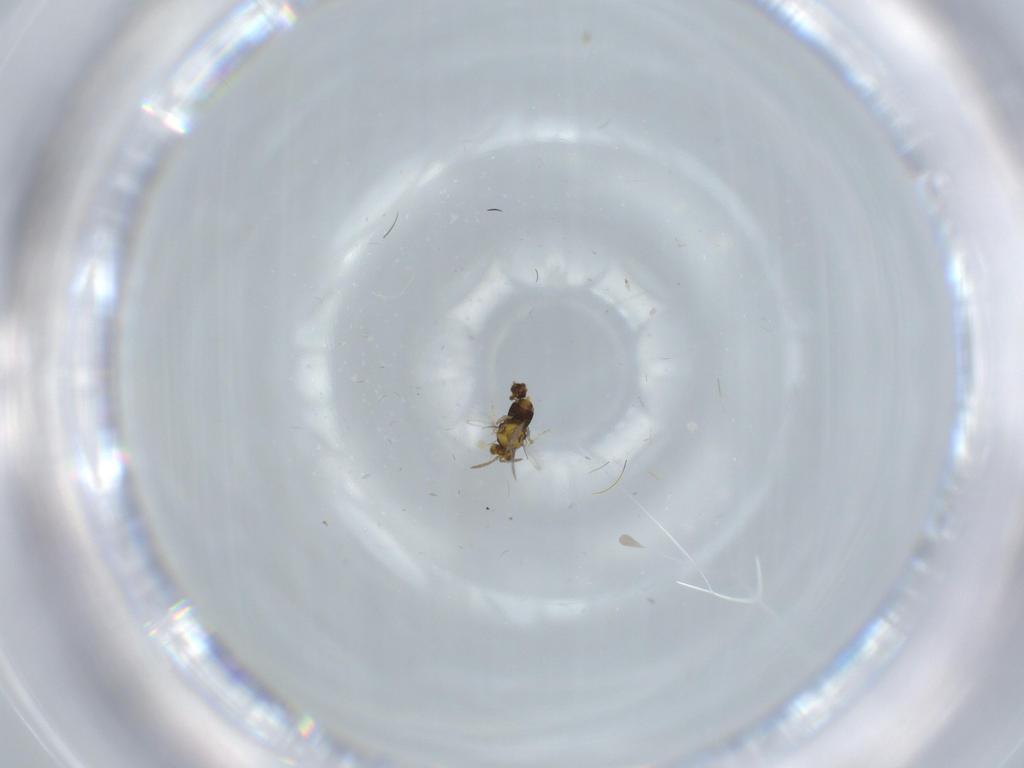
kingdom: Animalia
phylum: Arthropoda
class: Insecta
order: Hymenoptera
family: Aphelinidae
